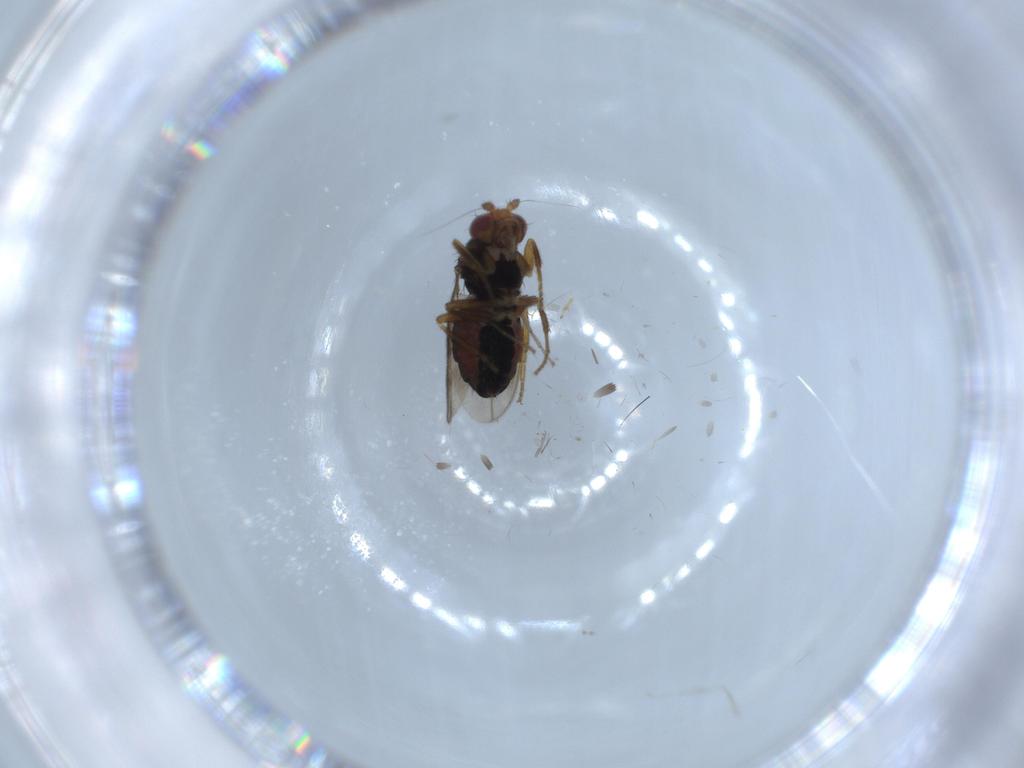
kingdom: Animalia
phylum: Arthropoda
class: Insecta
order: Diptera
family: Sphaeroceridae
